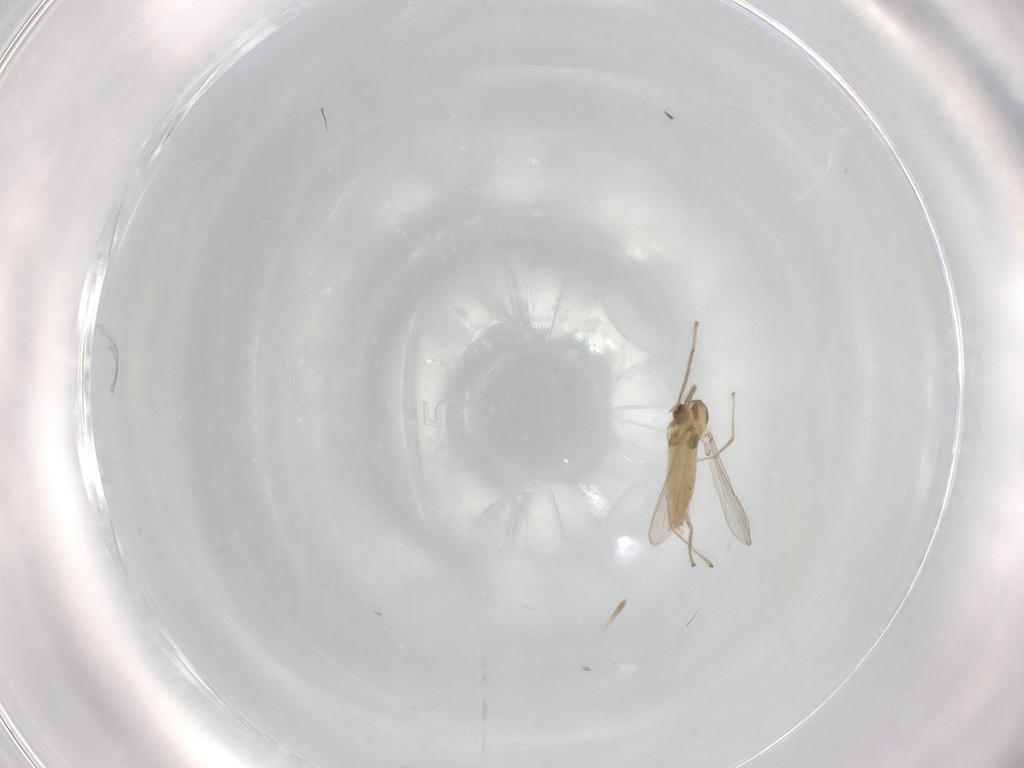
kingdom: Animalia
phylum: Arthropoda
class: Insecta
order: Diptera
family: Chironomidae
